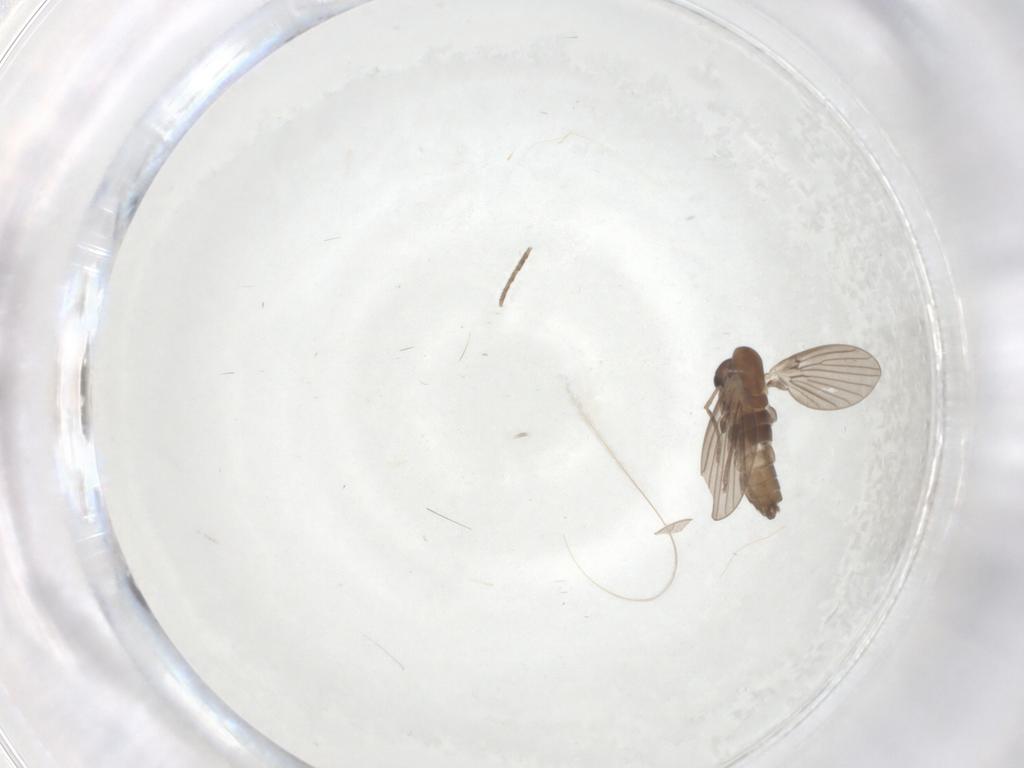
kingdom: Animalia
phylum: Arthropoda
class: Insecta
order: Diptera
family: Psychodidae
